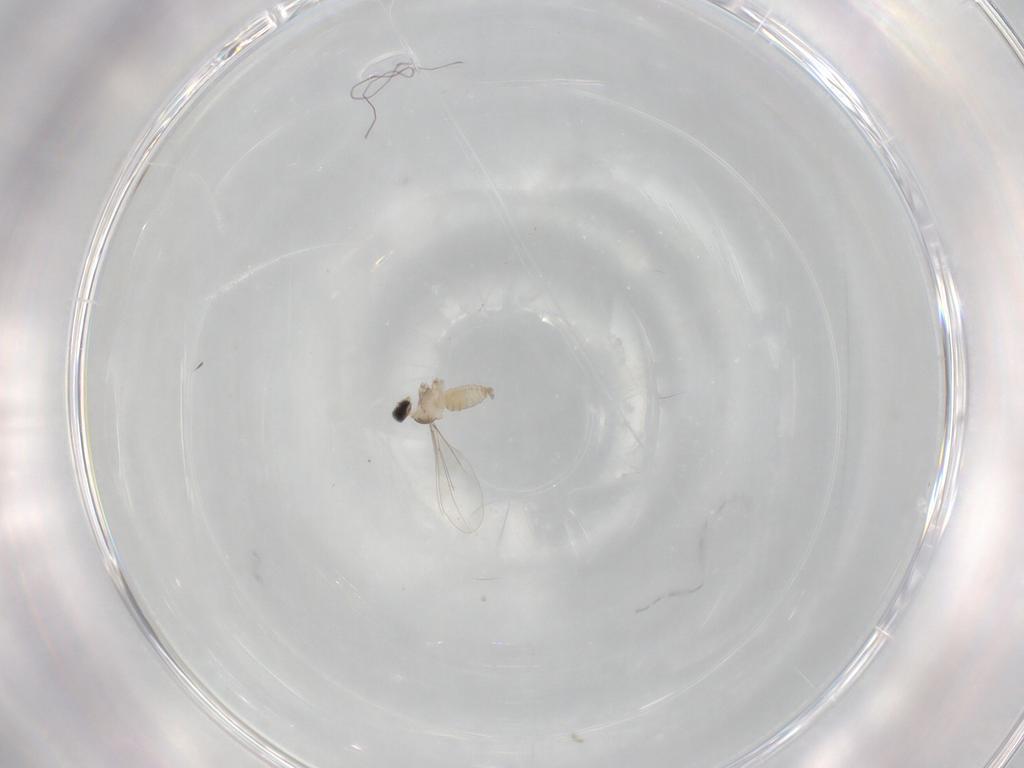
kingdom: Animalia
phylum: Arthropoda
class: Insecta
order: Diptera
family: Cecidomyiidae
